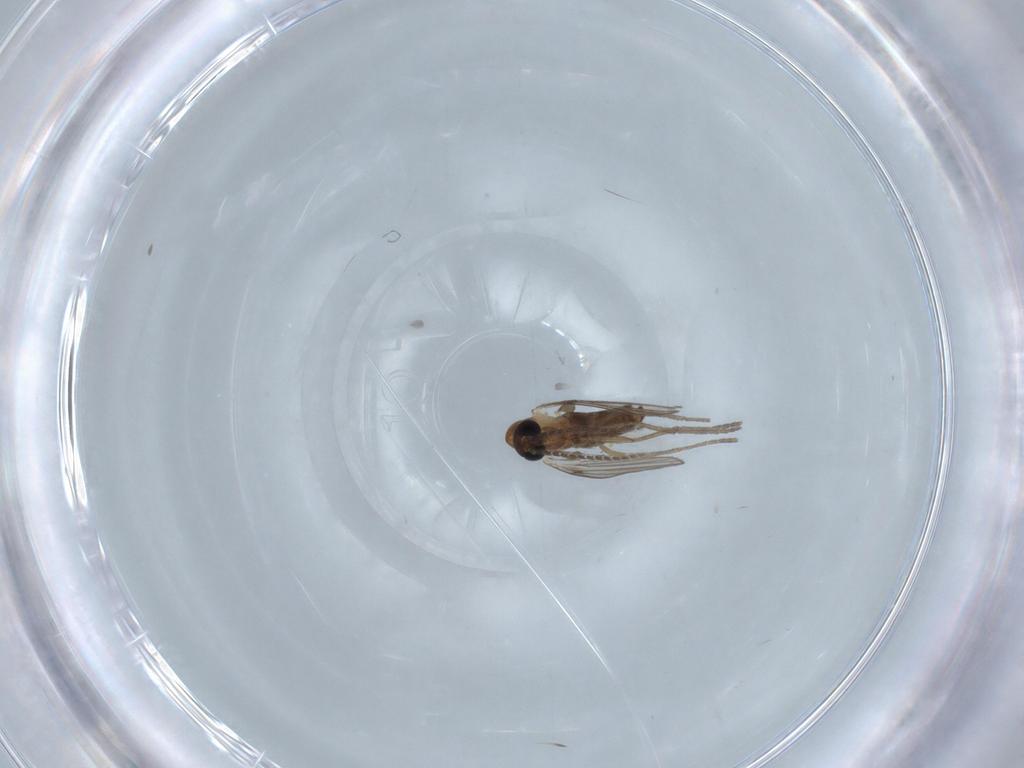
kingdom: Animalia
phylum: Arthropoda
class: Insecta
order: Diptera
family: Psychodidae
